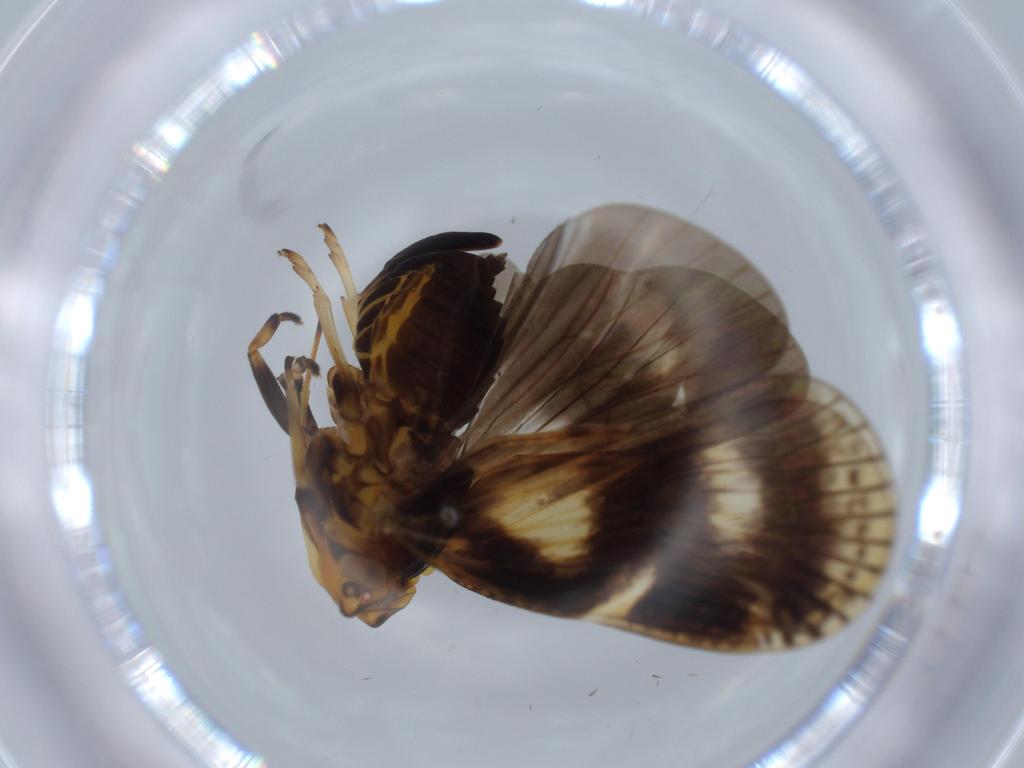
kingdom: Animalia
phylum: Arthropoda
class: Insecta
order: Hemiptera
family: Cixiidae
